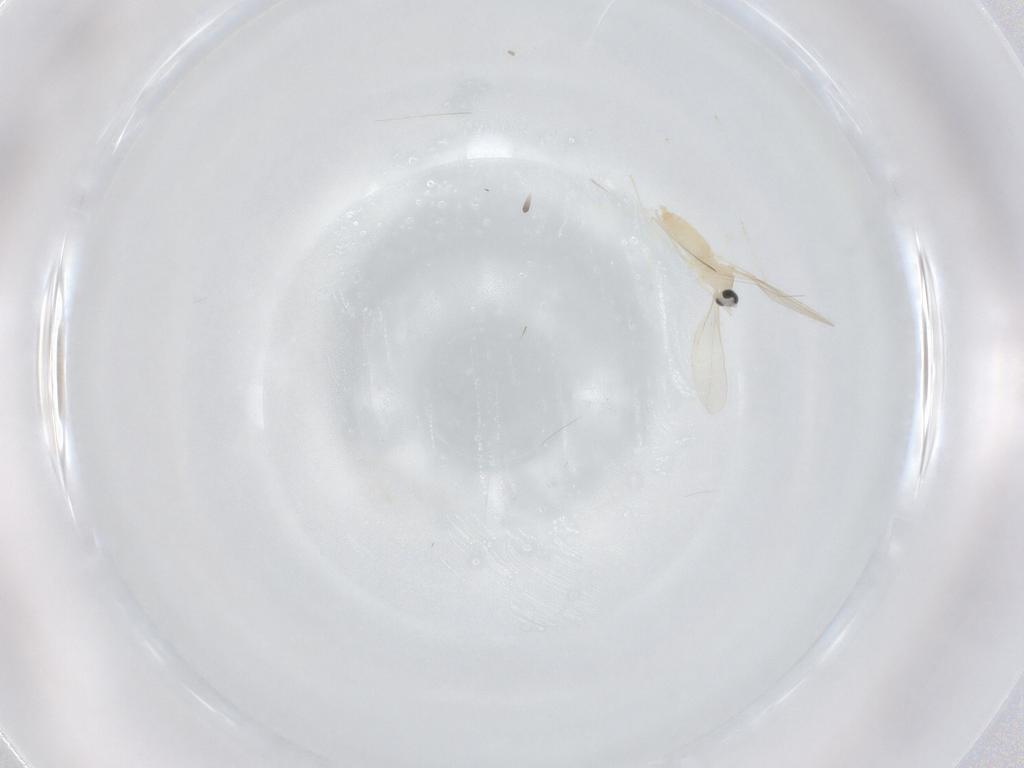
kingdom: Animalia
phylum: Arthropoda
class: Insecta
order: Diptera
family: Cecidomyiidae
